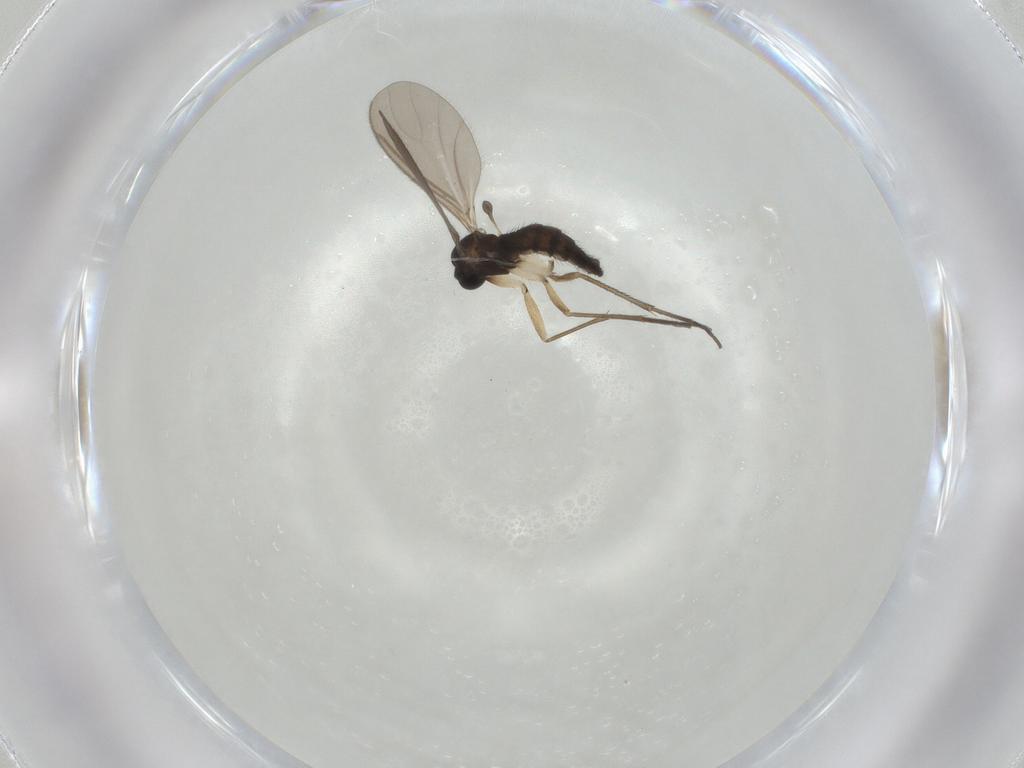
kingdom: Animalia
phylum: Arthropoda
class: Insecta
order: Diptera
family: Sciaridae
